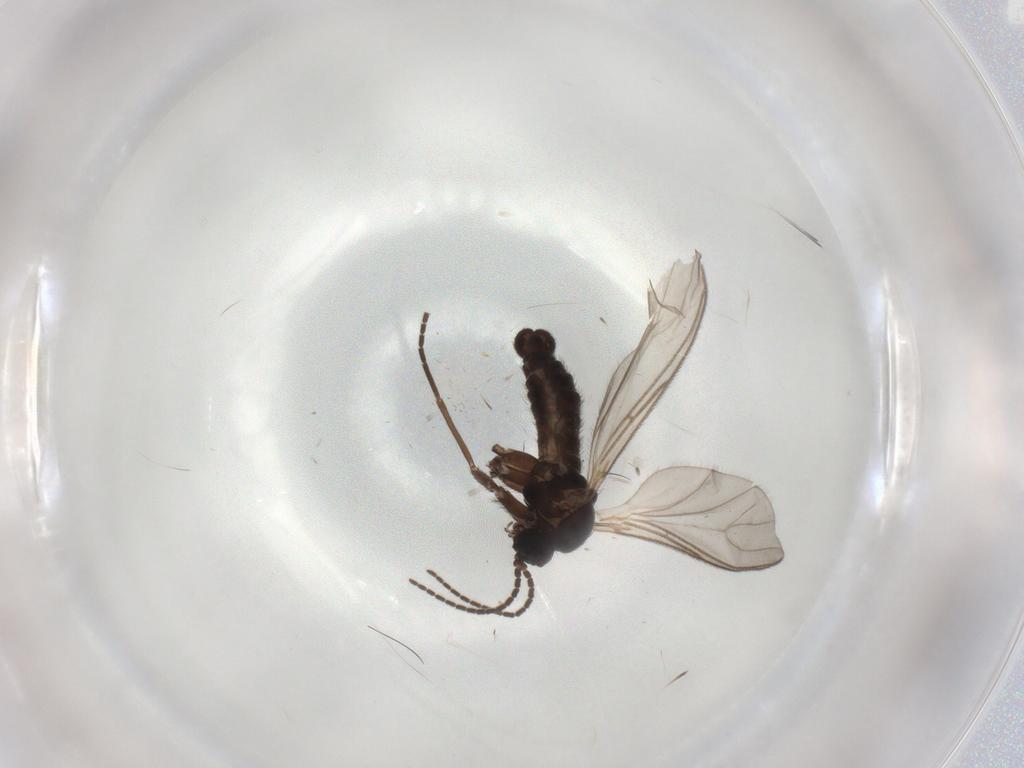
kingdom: Animalia
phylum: Arthropoda
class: Insecta
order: Diptera
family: Sciaridae
